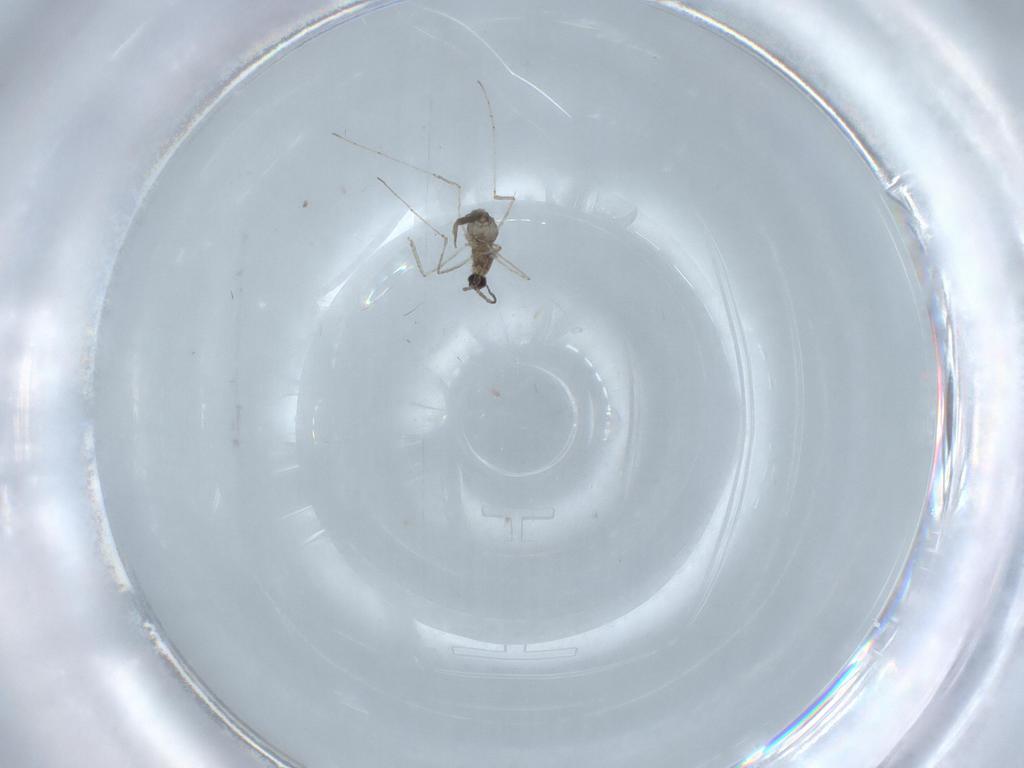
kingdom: Animalia
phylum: Arthropoda
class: Insecta
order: Diptera
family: Cecidomyiidae
